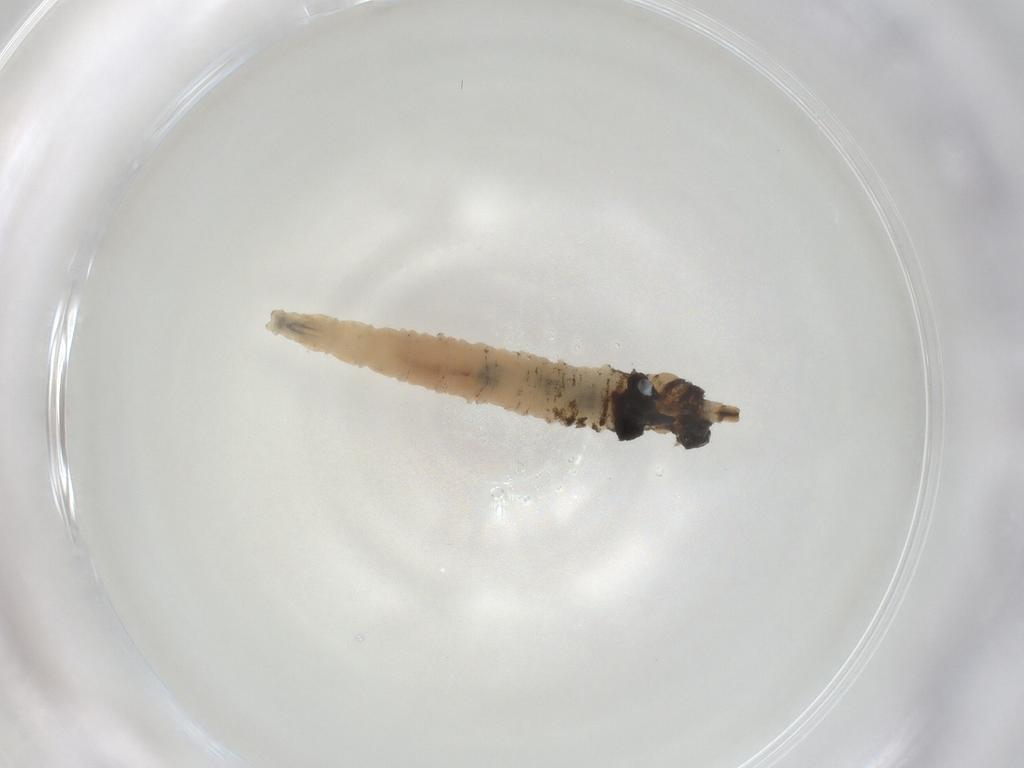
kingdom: Animalia
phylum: Arthropoda
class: Insecta
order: Diptera
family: Cecidomyiidae
